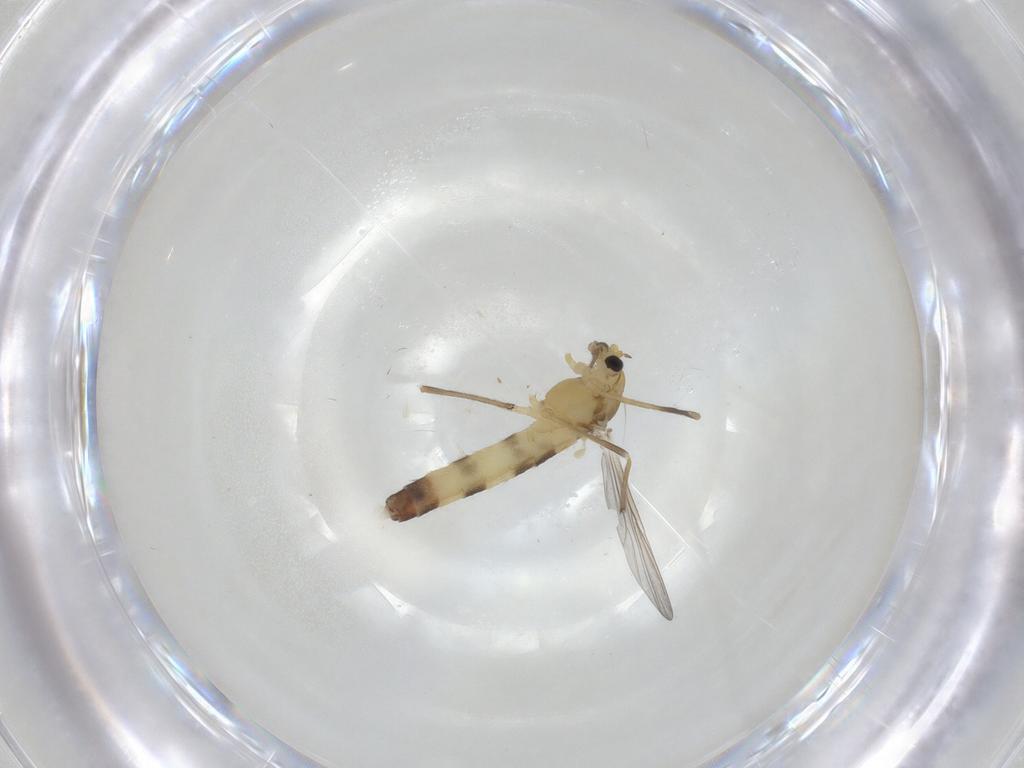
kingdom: Animalia
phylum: Arthropoda
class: Insecta
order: Diptera
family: Chironomidae
